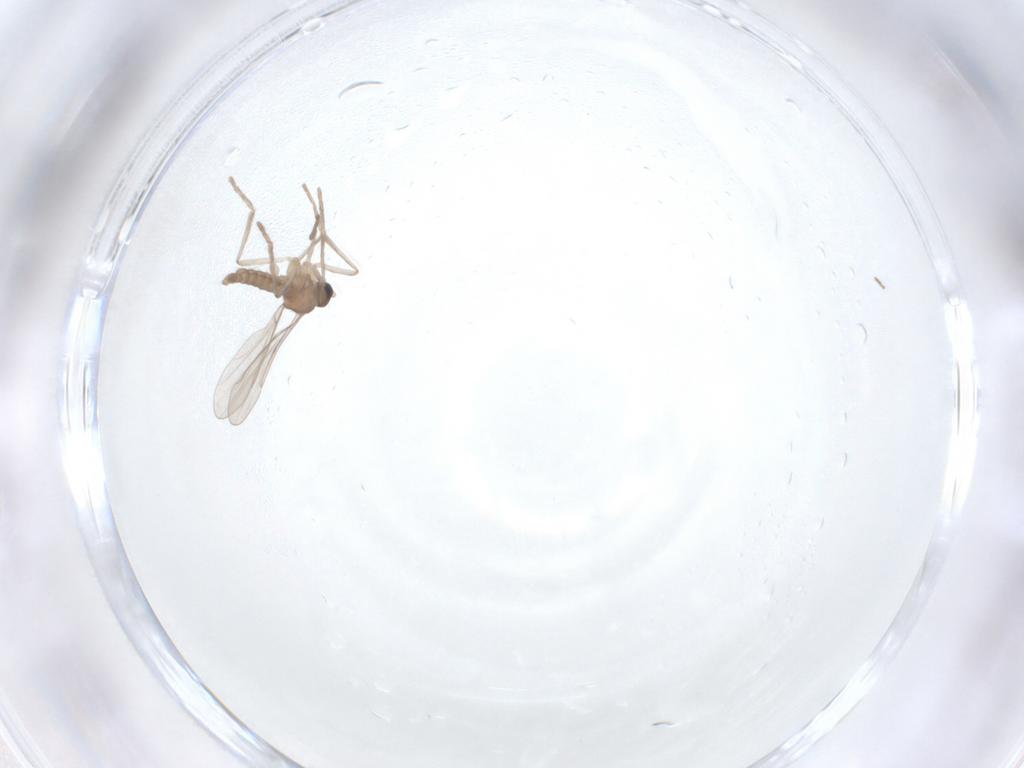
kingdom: Animalia
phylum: Arthropoda
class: Insecta
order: Diptera
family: Cecidomyiidae
